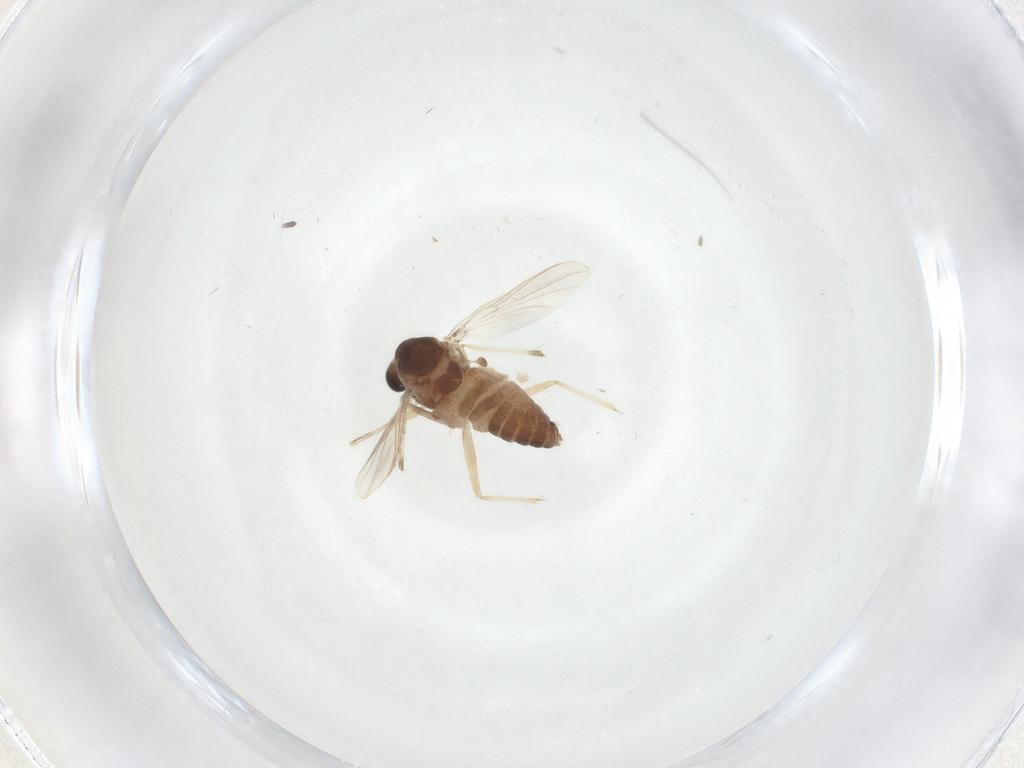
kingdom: Animalia
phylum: Arthropoda
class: Insecta
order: Diptera
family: Chironomidae
